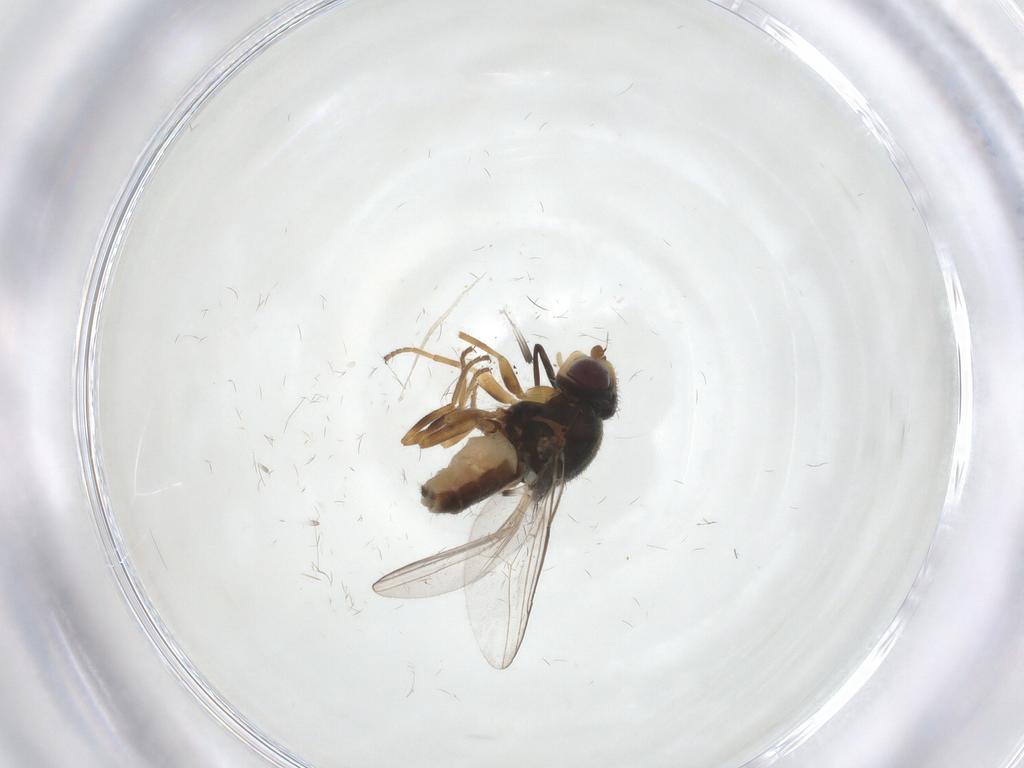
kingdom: Animalia
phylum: Arthropoda
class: Insecta
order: Diptera
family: Chloropidae
